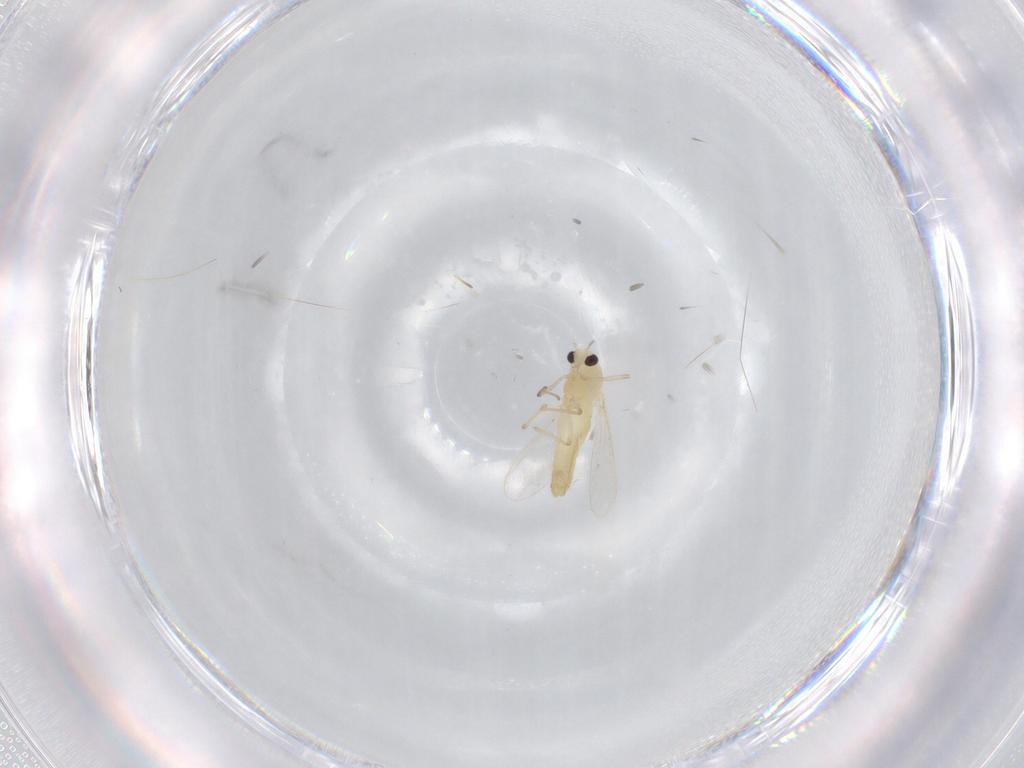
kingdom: Animalia
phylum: Arthropoda
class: Insecta
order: Diptera
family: Chironomidae
